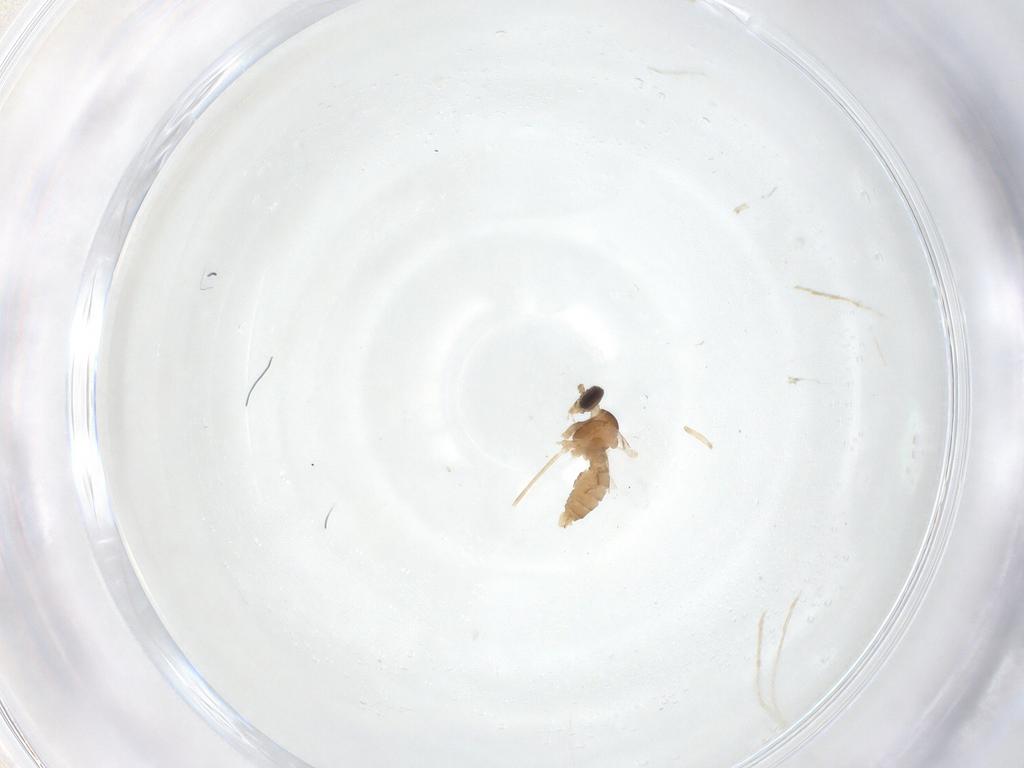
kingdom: Animalia
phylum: Arthropoda
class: Insecta
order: Diptera
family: Cecidomyiidae
